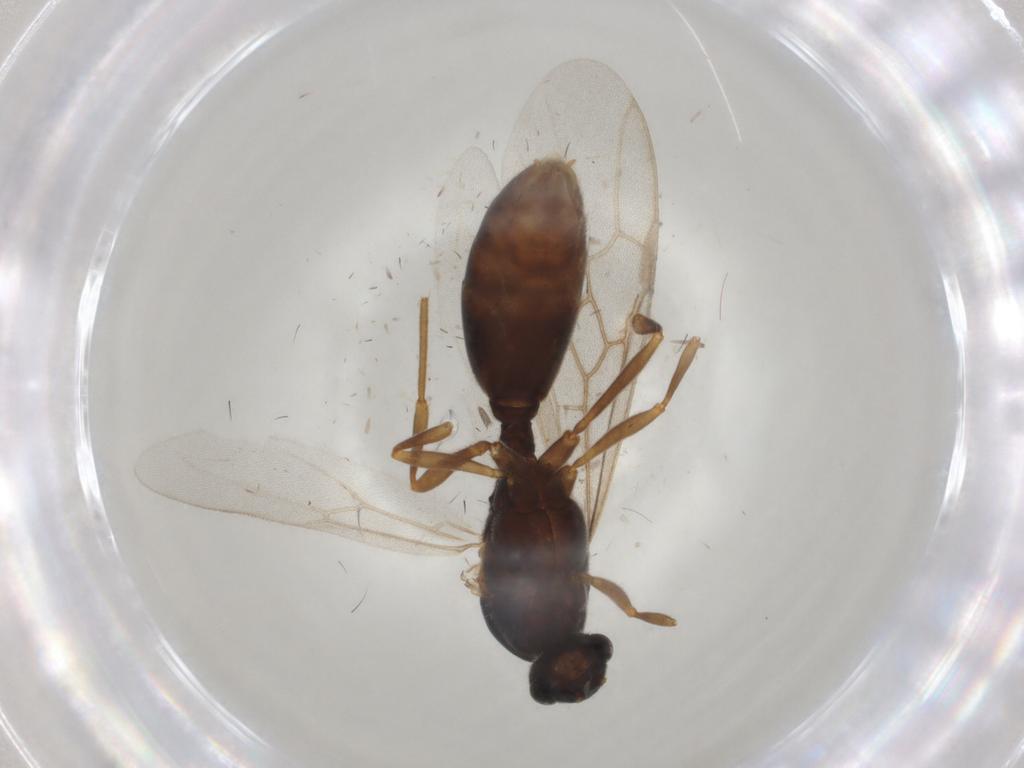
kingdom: Animalia
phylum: Arthropoda
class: Insecta
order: Hymenoptera
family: Formicidae
